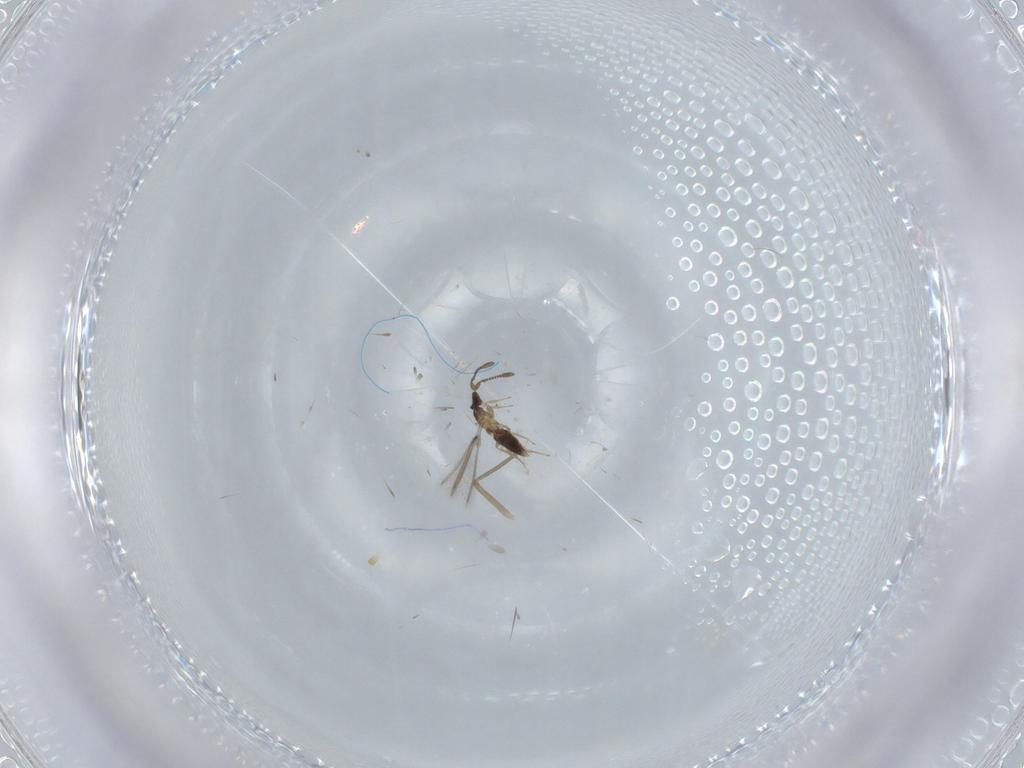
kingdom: Animalia
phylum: Arthropoda
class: Insecta
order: Hymenoptera
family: Mymaridae
